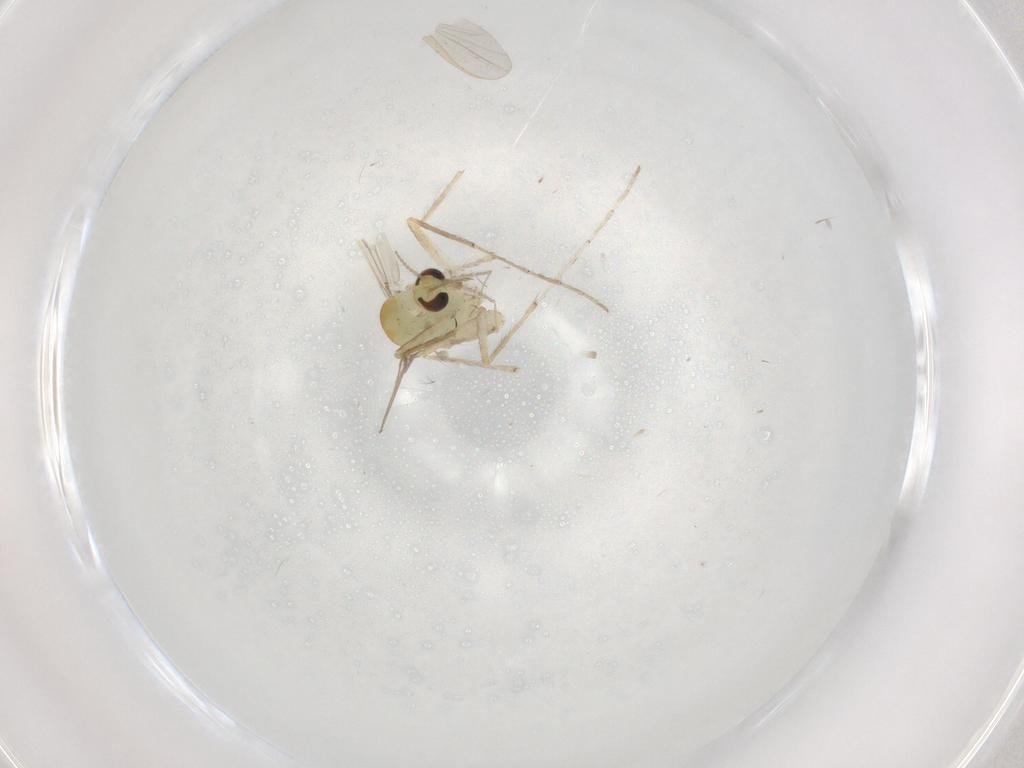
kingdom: Animalia
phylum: Arthropoda
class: Insecta
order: Diptera
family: Chironomidae
